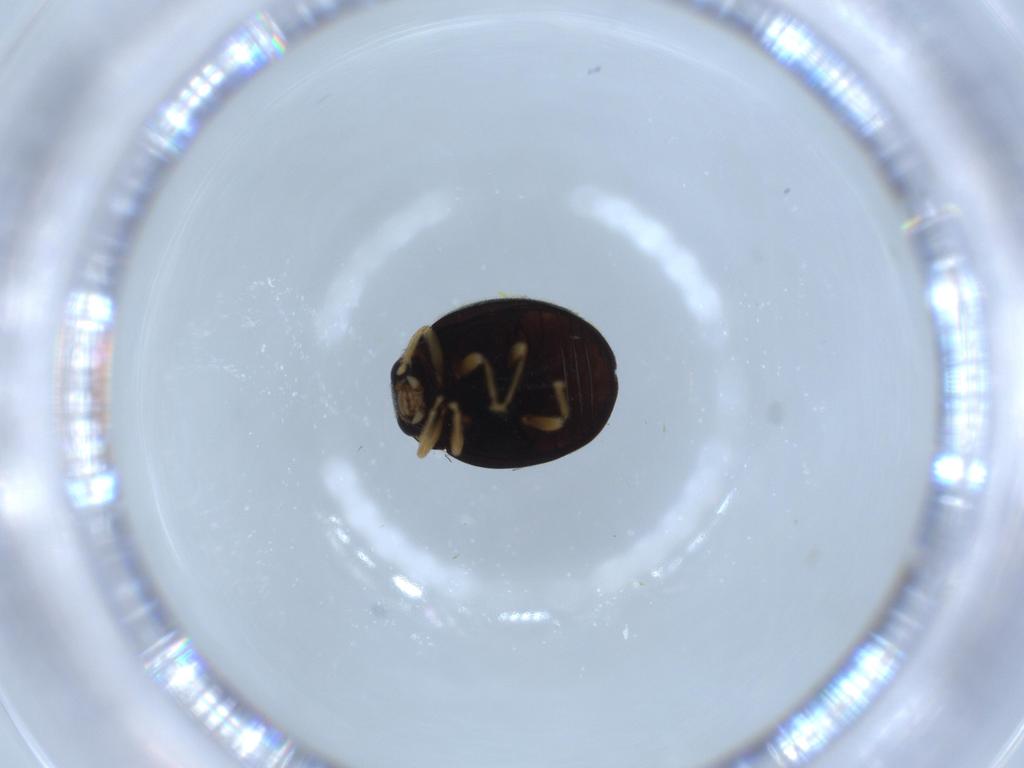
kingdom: Animalia
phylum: Arthropoda
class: Insecta
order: Coleoptera
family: Coccinellidae
